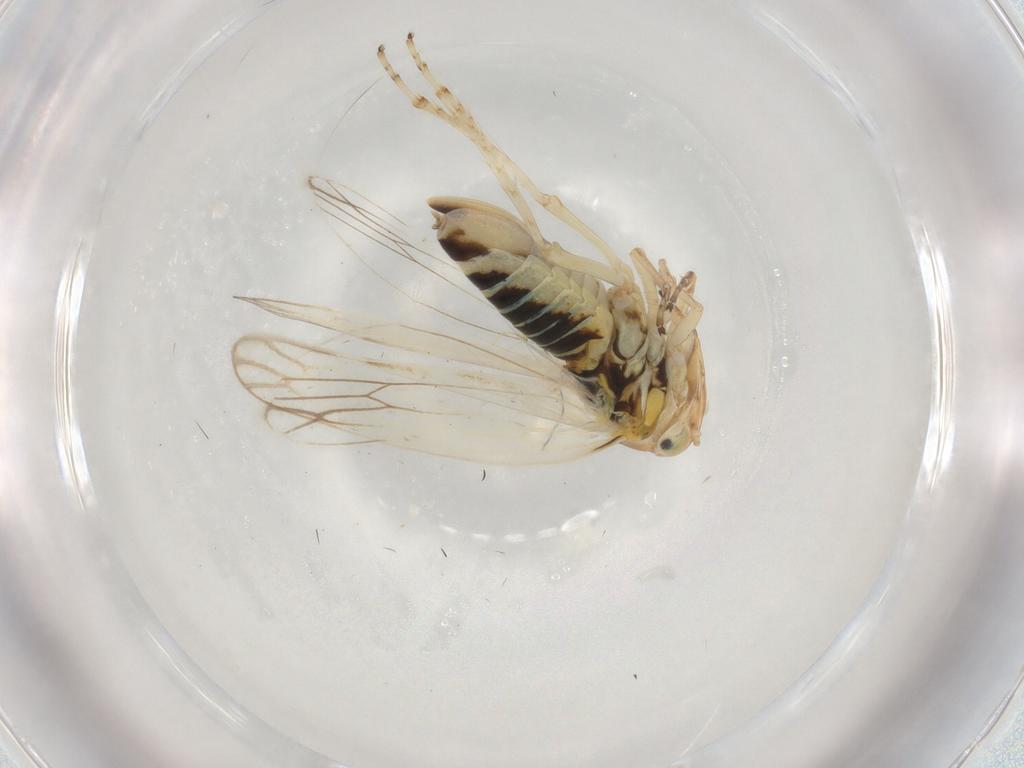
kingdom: Animalia
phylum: Arthropoda
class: Insecta
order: Hemiptera
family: Cicadellidae
